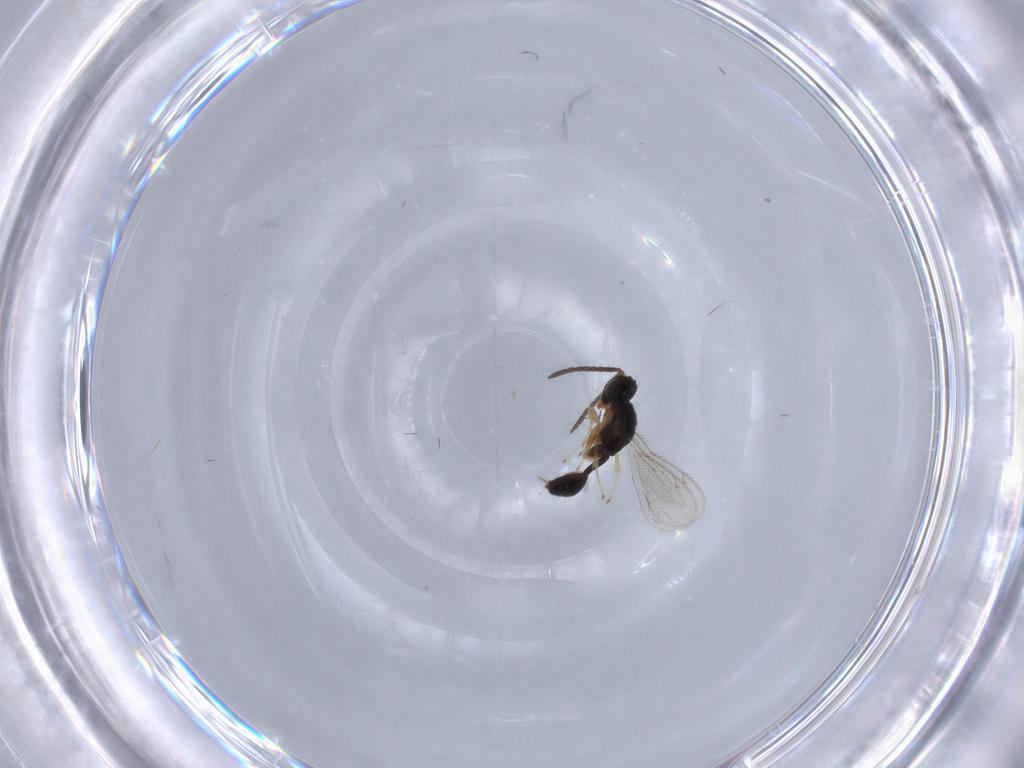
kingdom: Animalia
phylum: Arthropoda
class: Insecta
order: Hymenoptera
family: Diparidae
